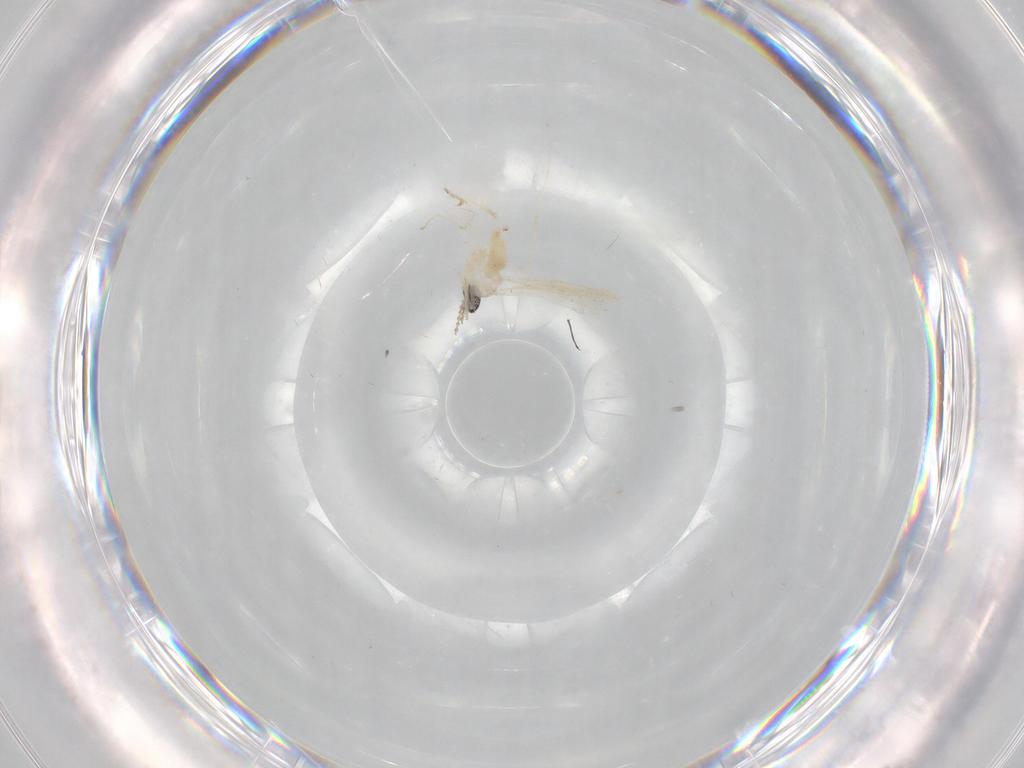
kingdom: Animalia
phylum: Arthropoda
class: Insecta
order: Diptera
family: Cecidomyiidae
